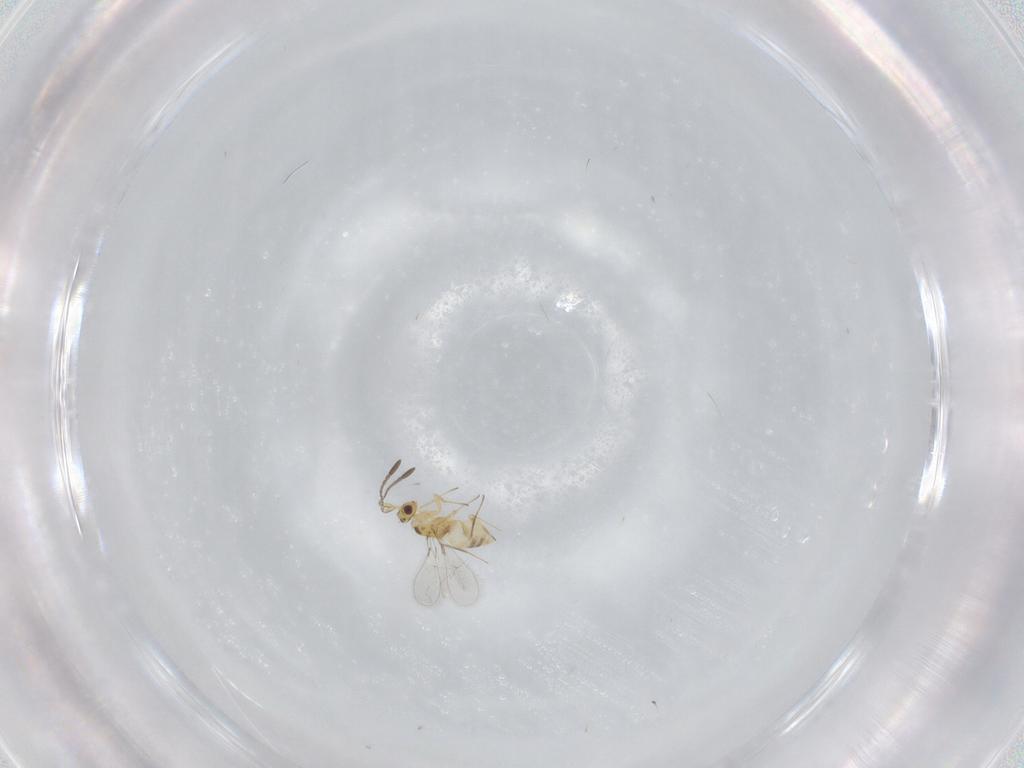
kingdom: Animalia
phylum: Arthropoda
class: Insecta
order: Hymenoptera
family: Mymaridae
